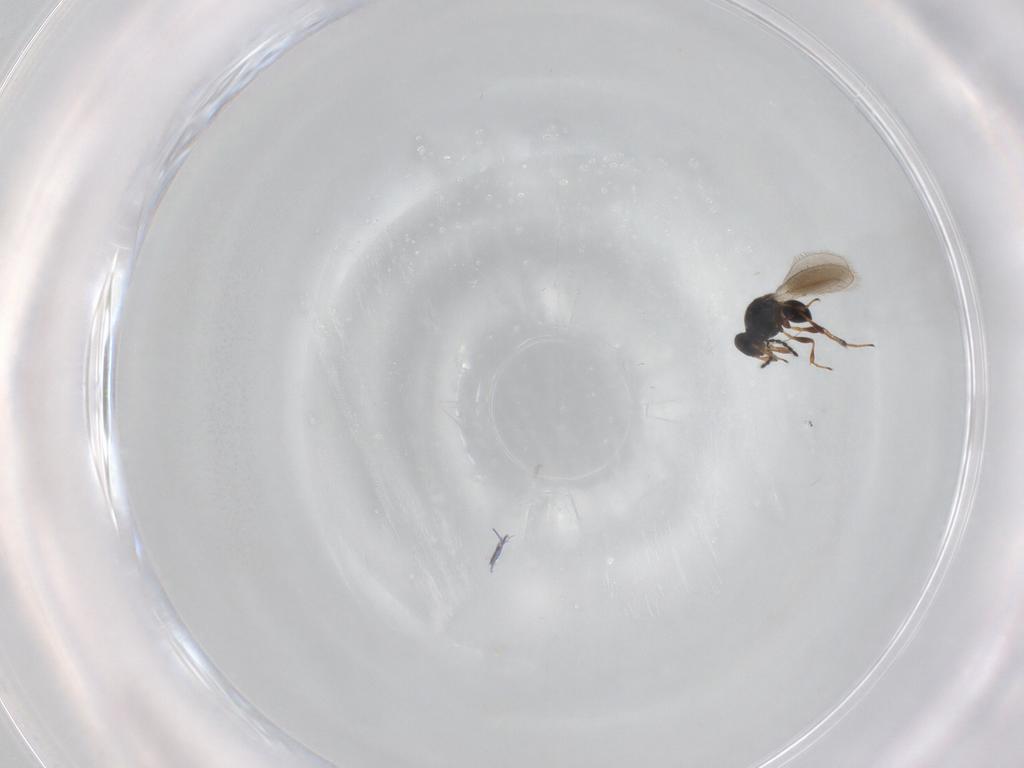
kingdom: Animalia
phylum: Arthropoda
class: Insecta
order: Hymenoptera
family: Platygastridae
